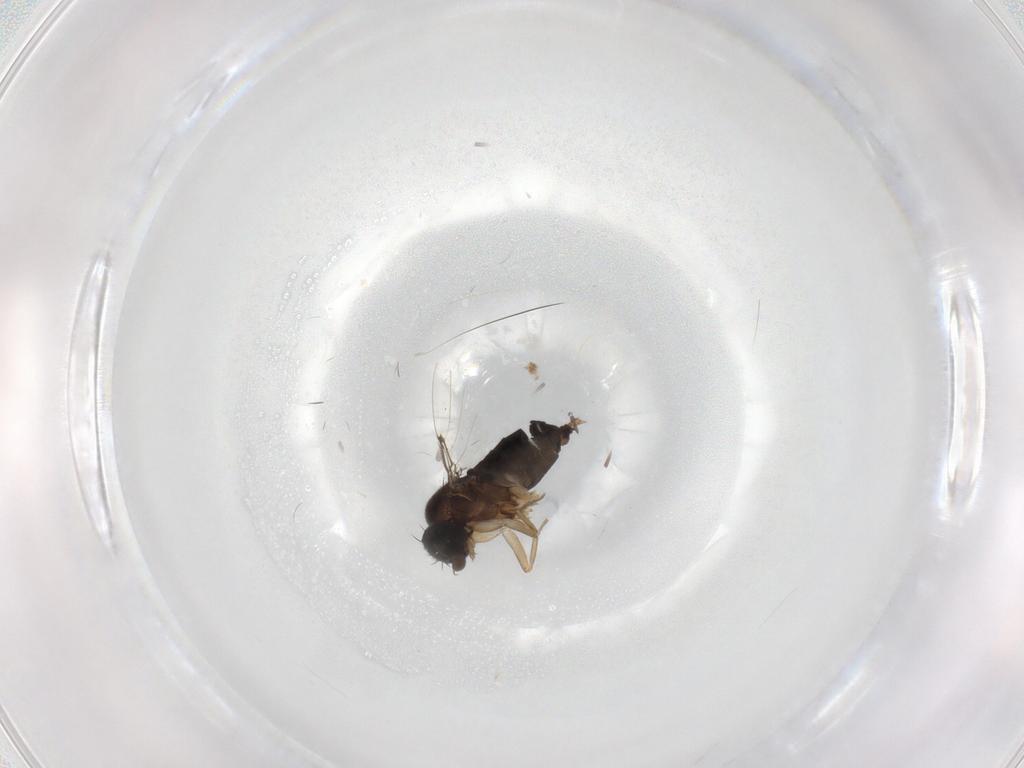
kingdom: Animalia
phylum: Arthropoda
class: Insecta
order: Diptera
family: Phoridae
